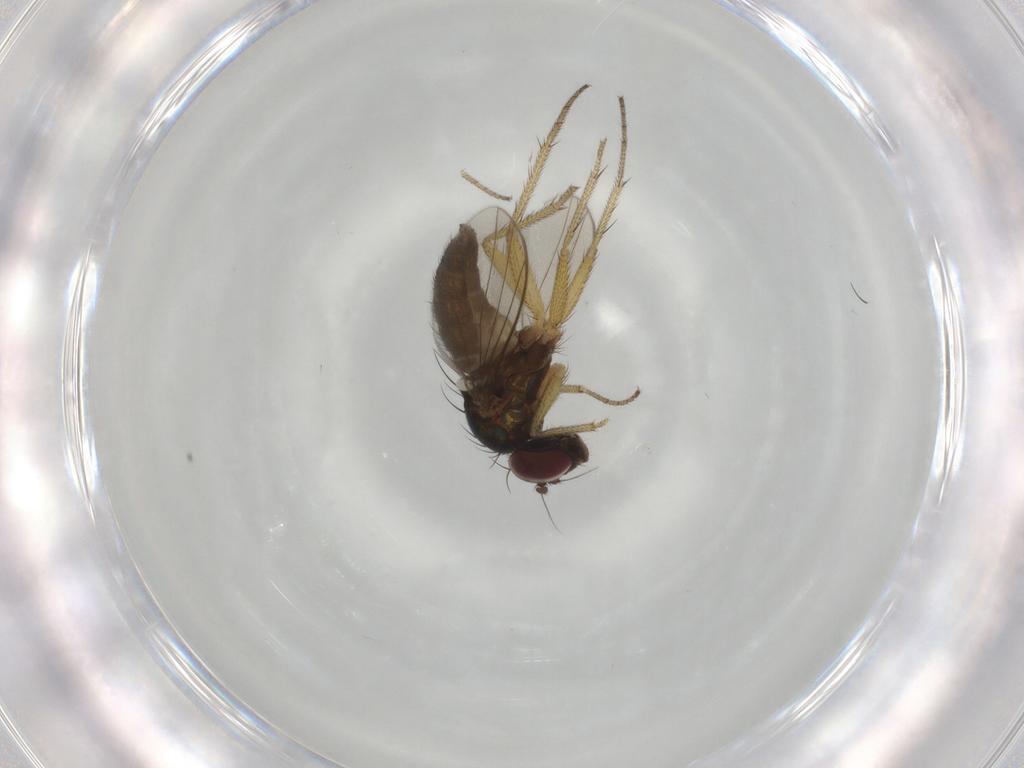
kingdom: Animalia
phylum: Arthropoda
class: Insecta
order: Diptera
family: Dolichopodidae
